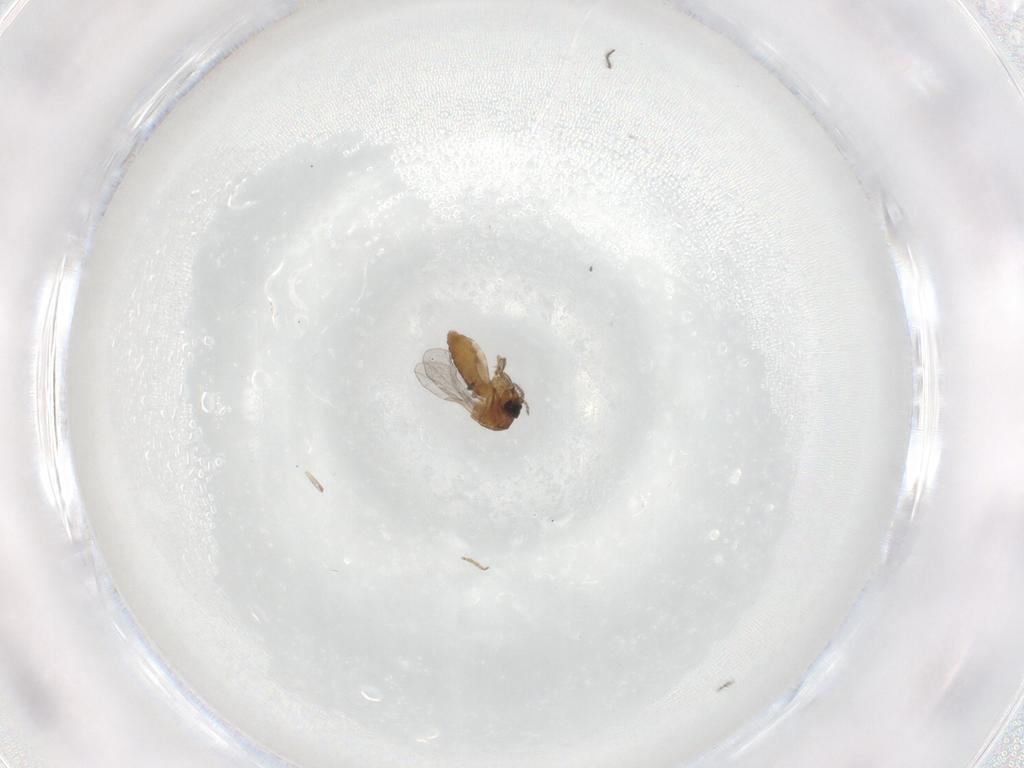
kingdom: Animalia
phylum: Arthropoda
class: Insecta
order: Diptera
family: Ceratopogonidae
